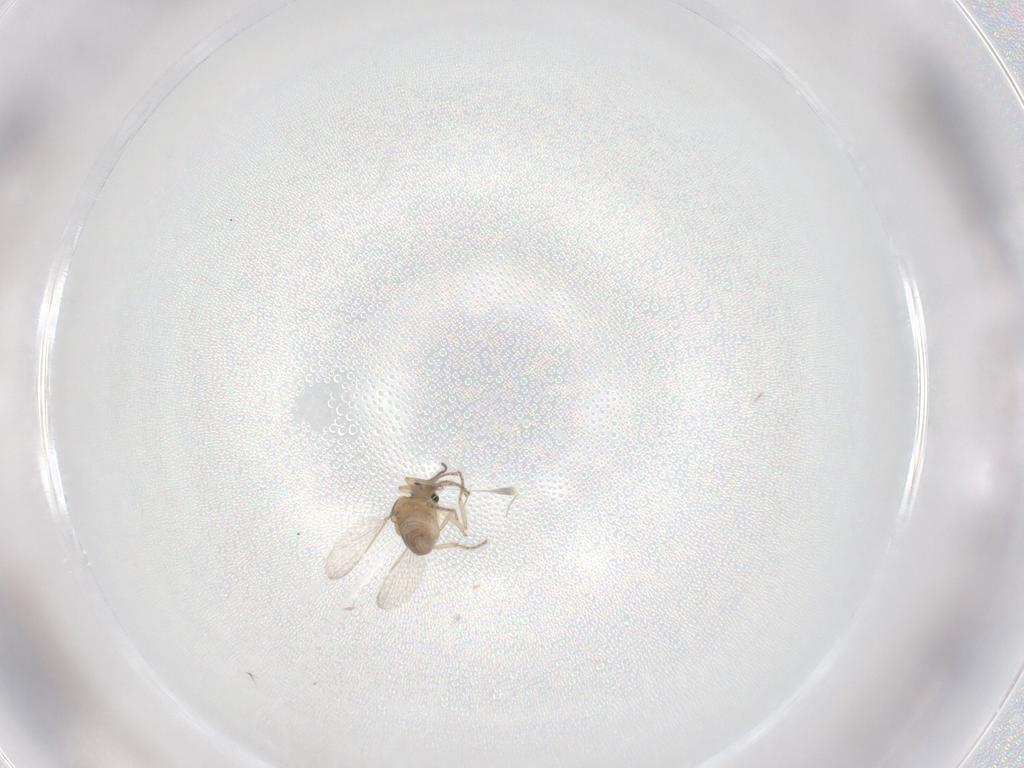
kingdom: Animalia
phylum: Arthropoda
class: Insecta
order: Diptera
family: Ceratopogonidae
